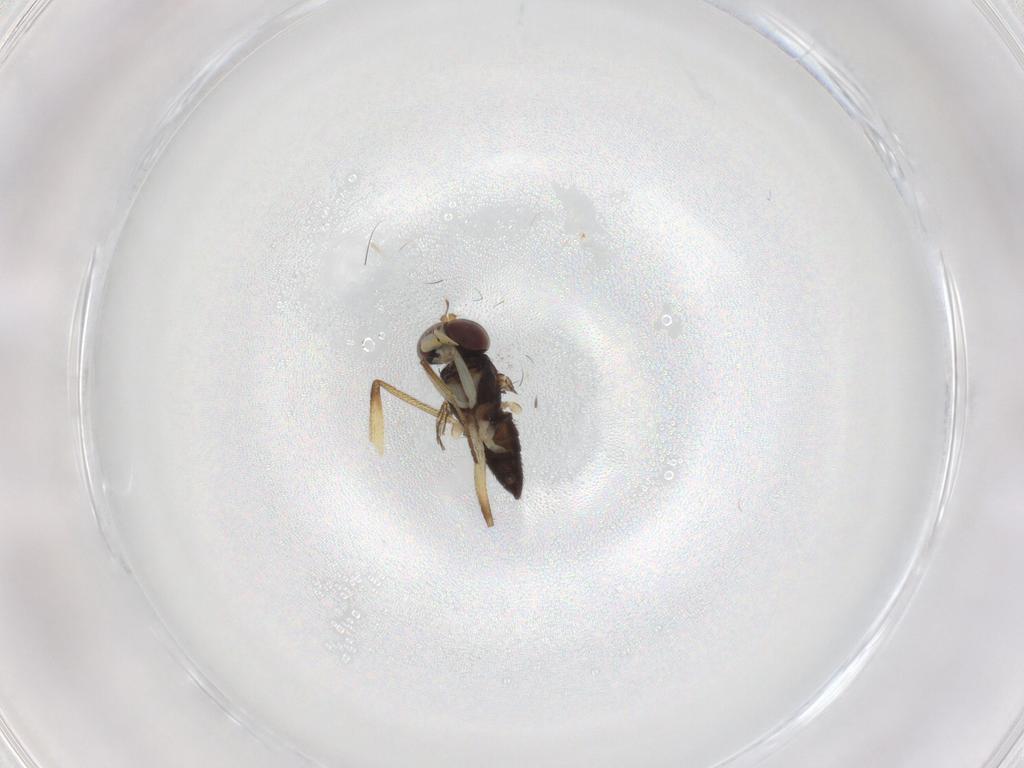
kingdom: Animalia
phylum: Arthropoda
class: Insecta
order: Diptera
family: Dolichopodidae
